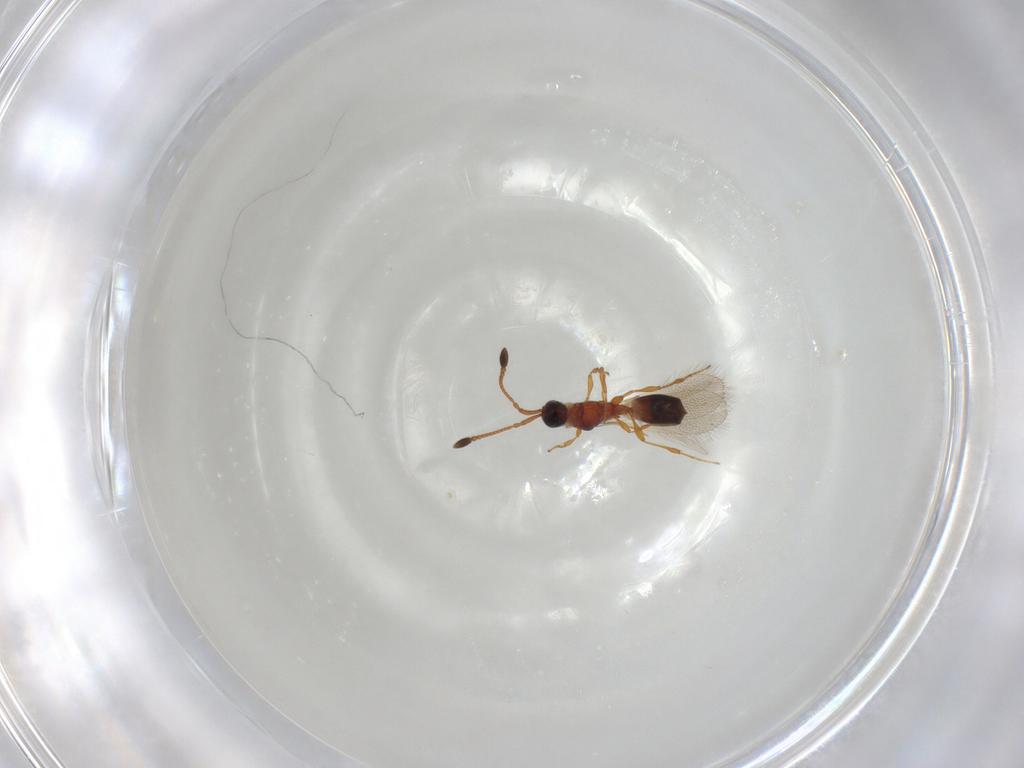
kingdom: Animalia
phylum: Arthropoda
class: Insecta
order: Hymenoptera
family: Diapriidae
